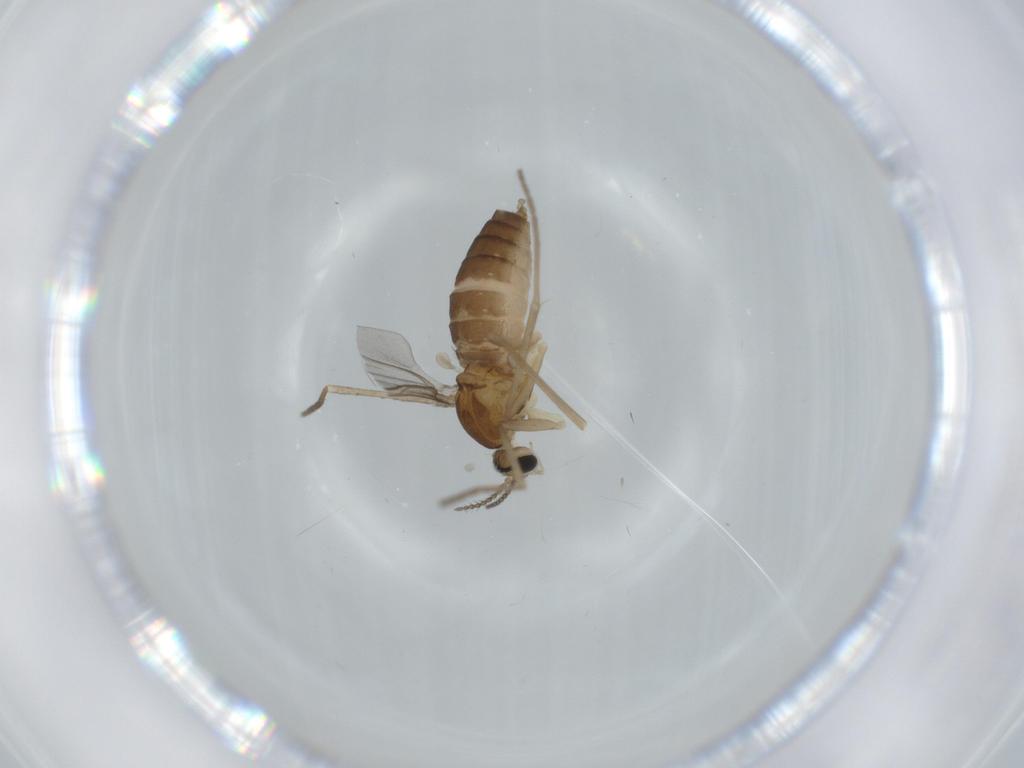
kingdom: Animalia
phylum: Arthropoda
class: Insecta
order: Diptera
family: Cecidomyiidae
